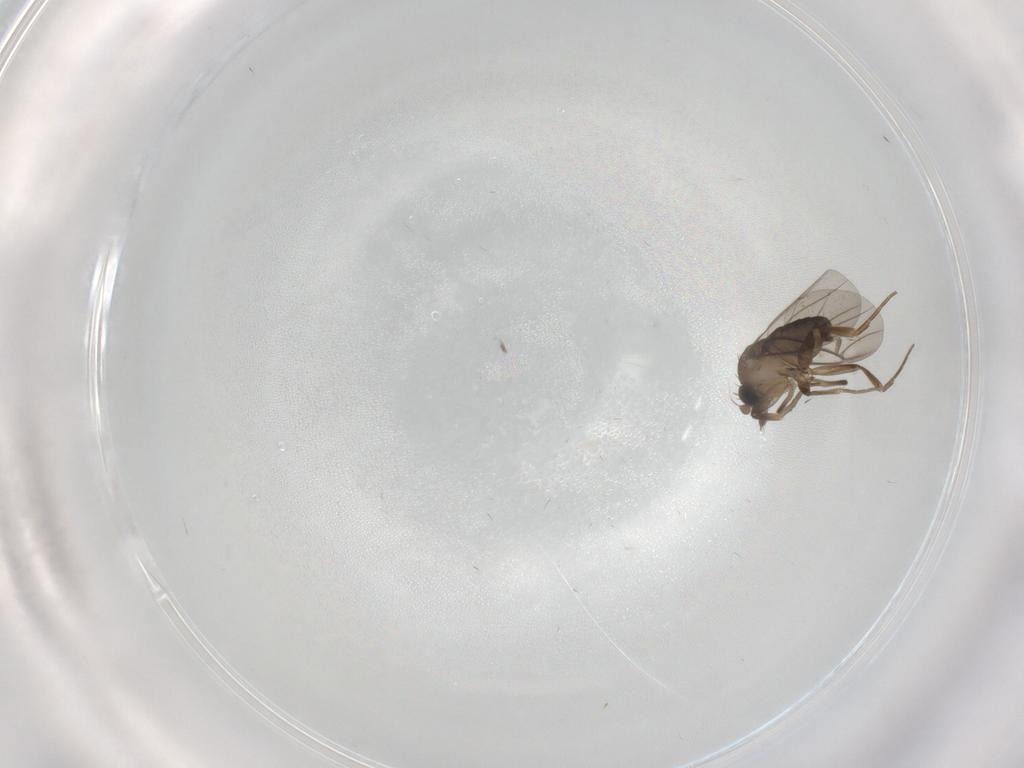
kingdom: Animalia
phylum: Arthropoda
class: Insecta
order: Diptera
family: Phoridae
